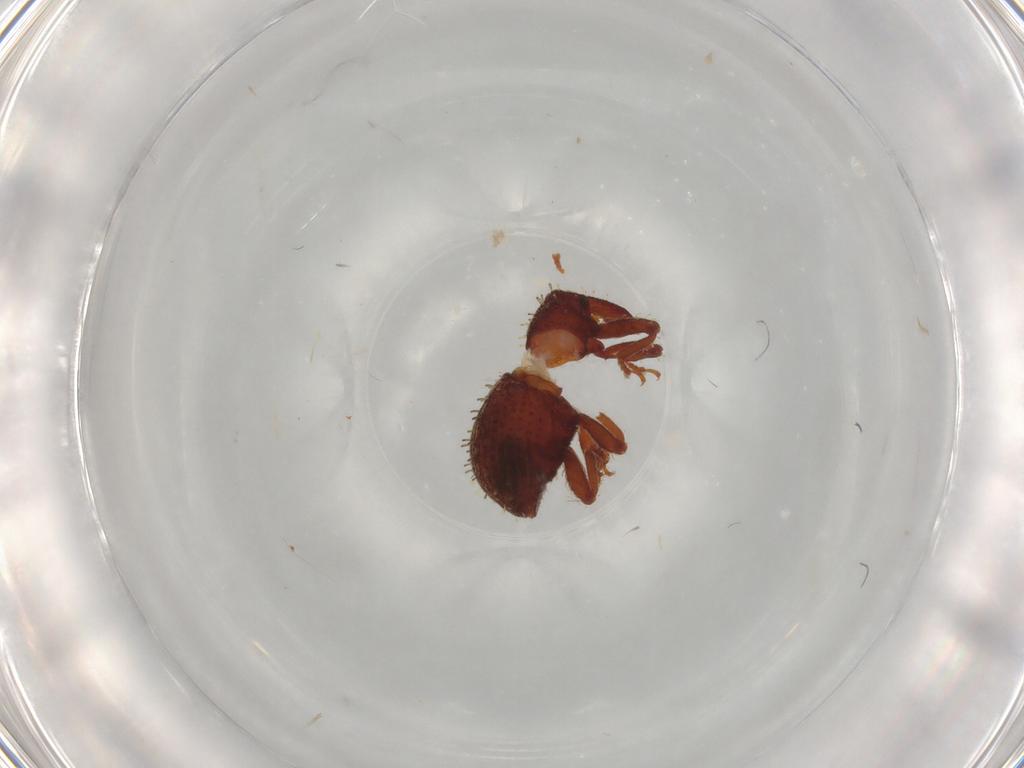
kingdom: Animalia
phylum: Arthropoda
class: Insecta
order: Coleoptera
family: Curculionidae
